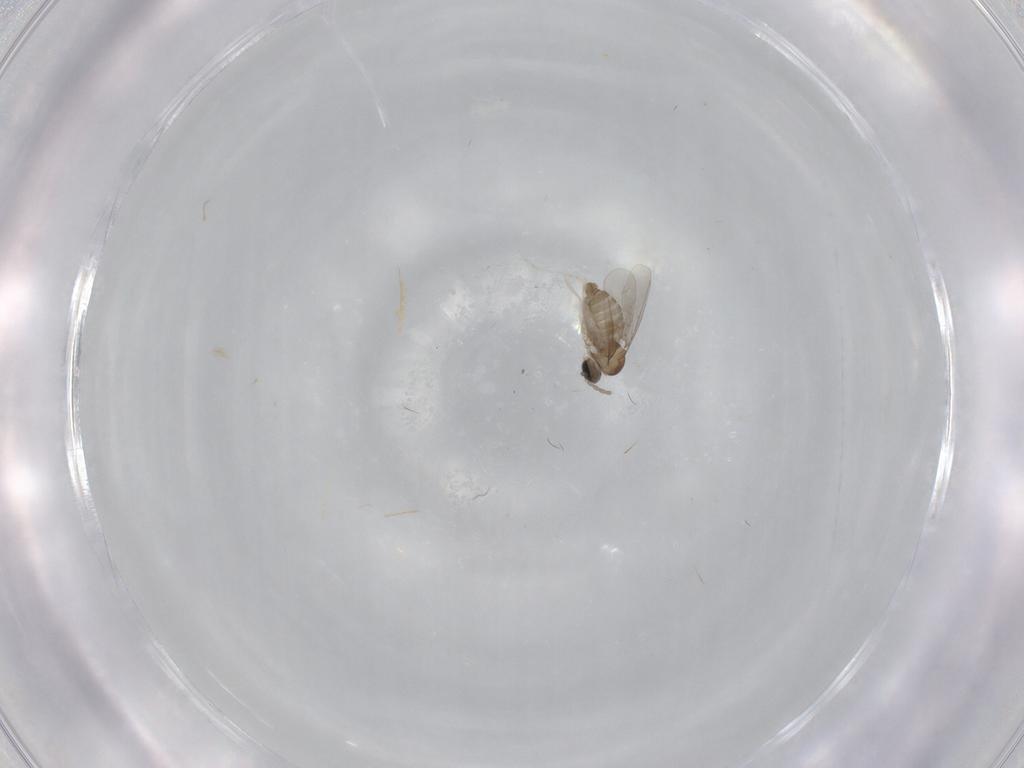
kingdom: Animalia
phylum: Arthropoda
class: Insecta
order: Diptera
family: Cecidomyiidae
